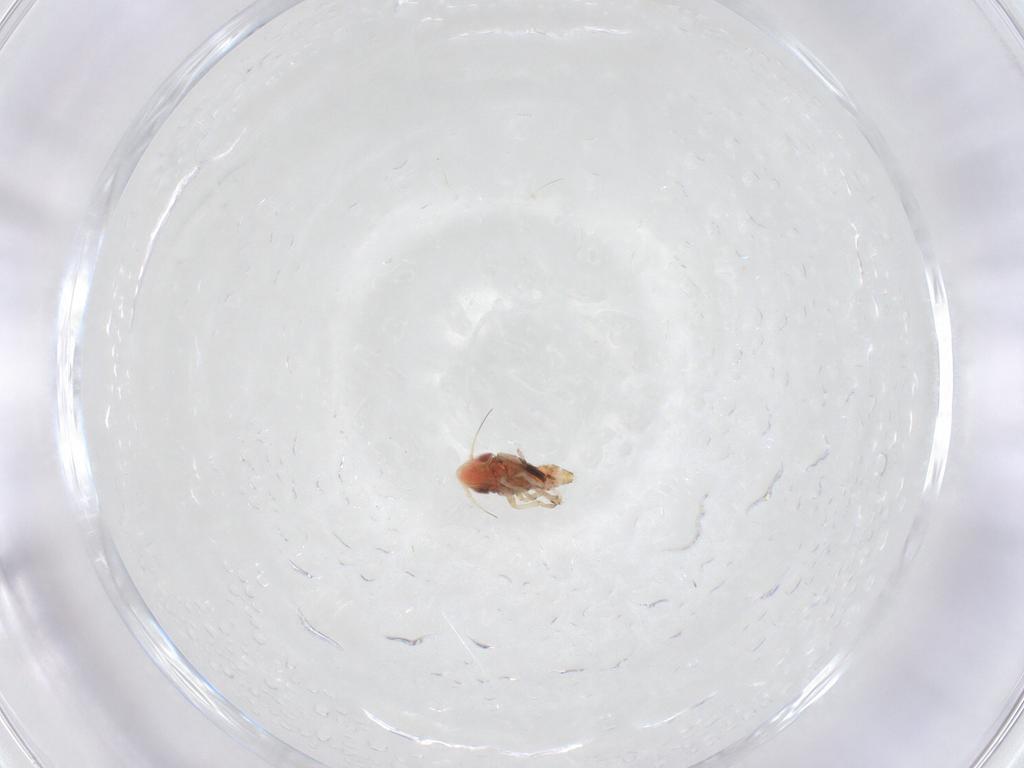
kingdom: Animalia
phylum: Arthropoda
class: Insecta
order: Hemiptera
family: Cicadellidae
